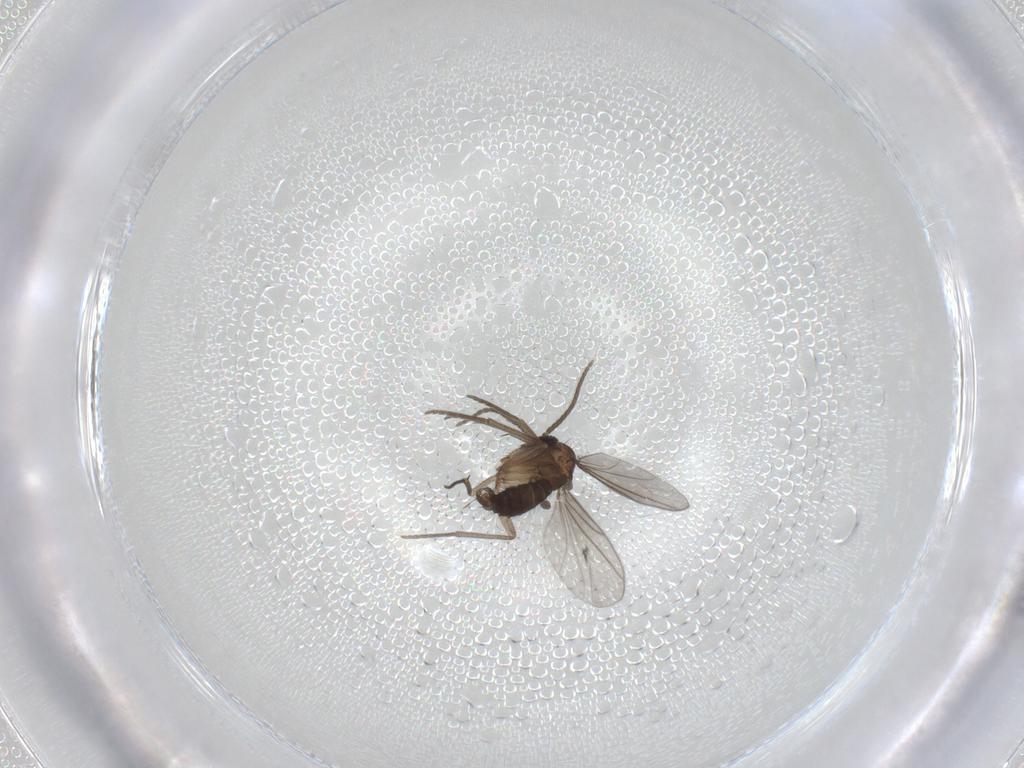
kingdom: Animalia
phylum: Arthropoda
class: Insecta
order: Diptera
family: Sciaridae
